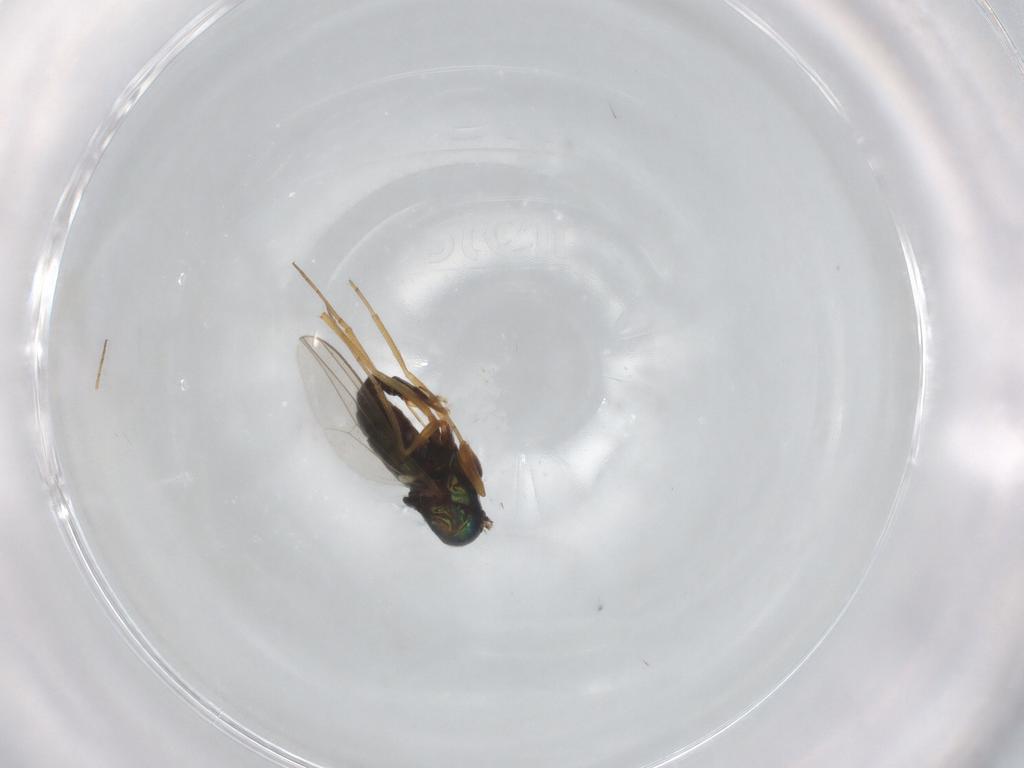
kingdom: Animalia
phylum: Arthropoda
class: Insecta
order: Diptera
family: Dolichopodidae
